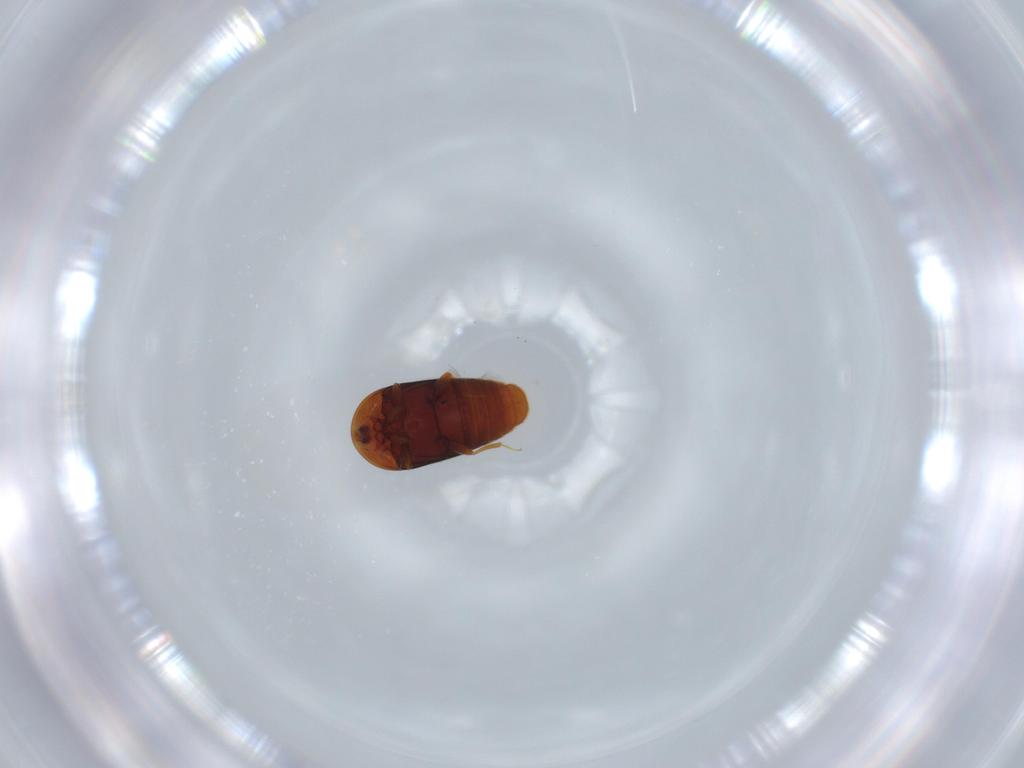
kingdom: Animalia
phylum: Arthropoda
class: Insecta
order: Coleoptera
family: Corylophidae
